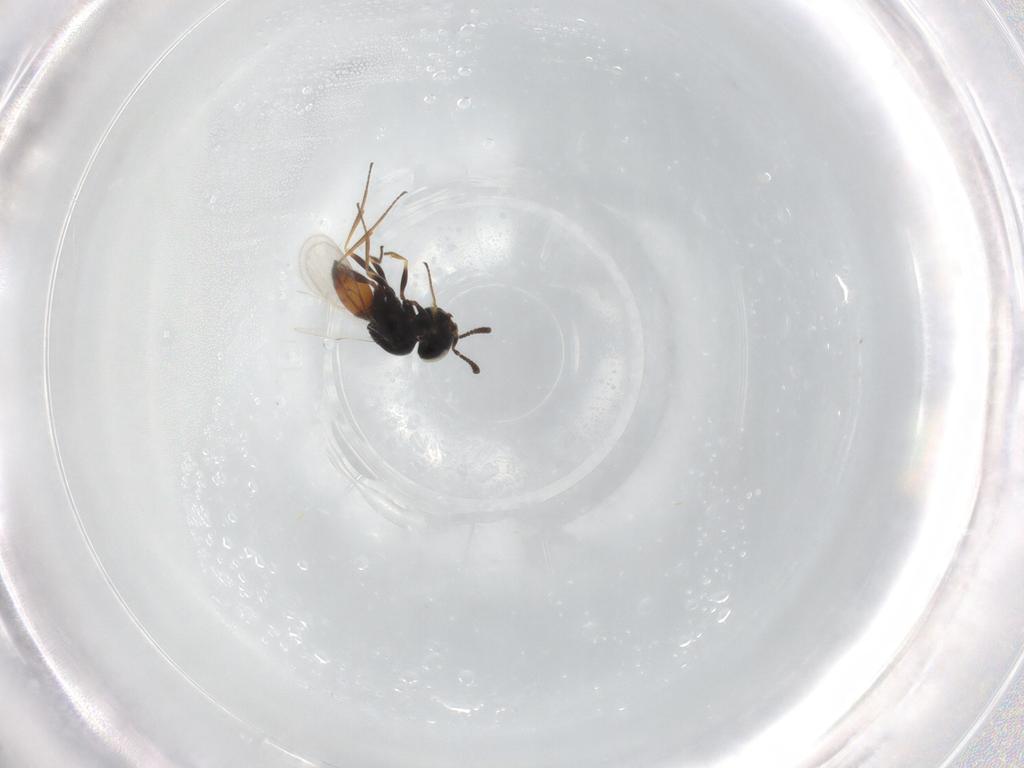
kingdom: Animalia
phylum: Arthropoda
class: Insecta
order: Hymenoptera
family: Scelionidae
